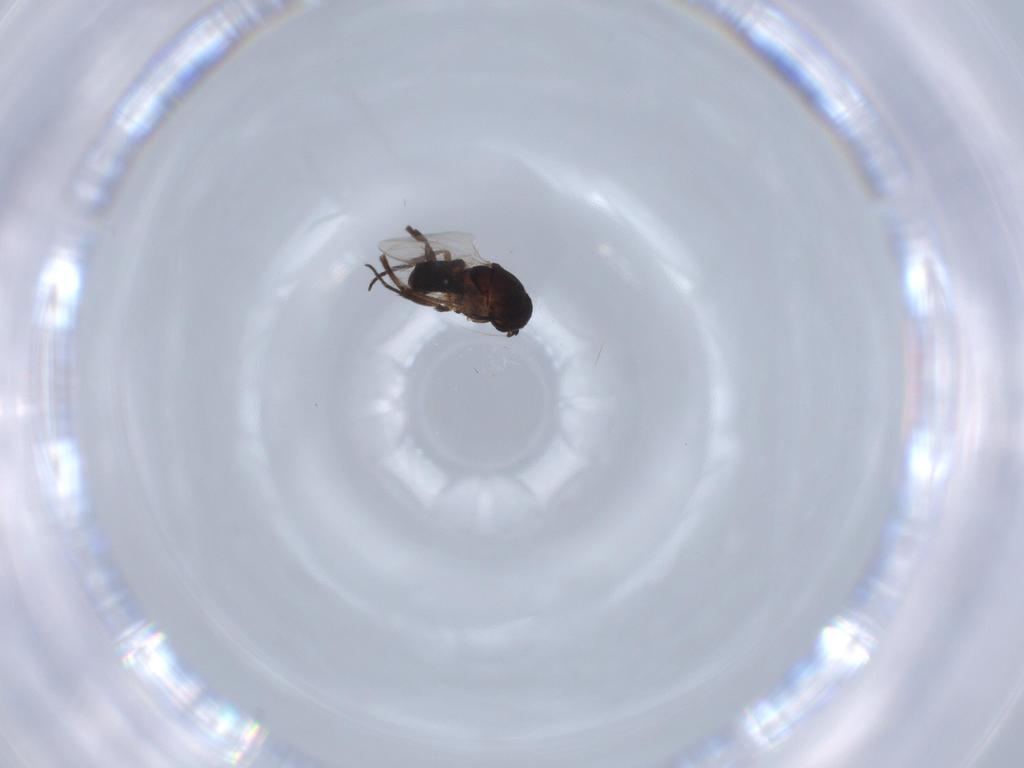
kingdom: Animalia
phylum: Arthropoda
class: Insecta
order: Diptera
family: Sphaeroceridae
